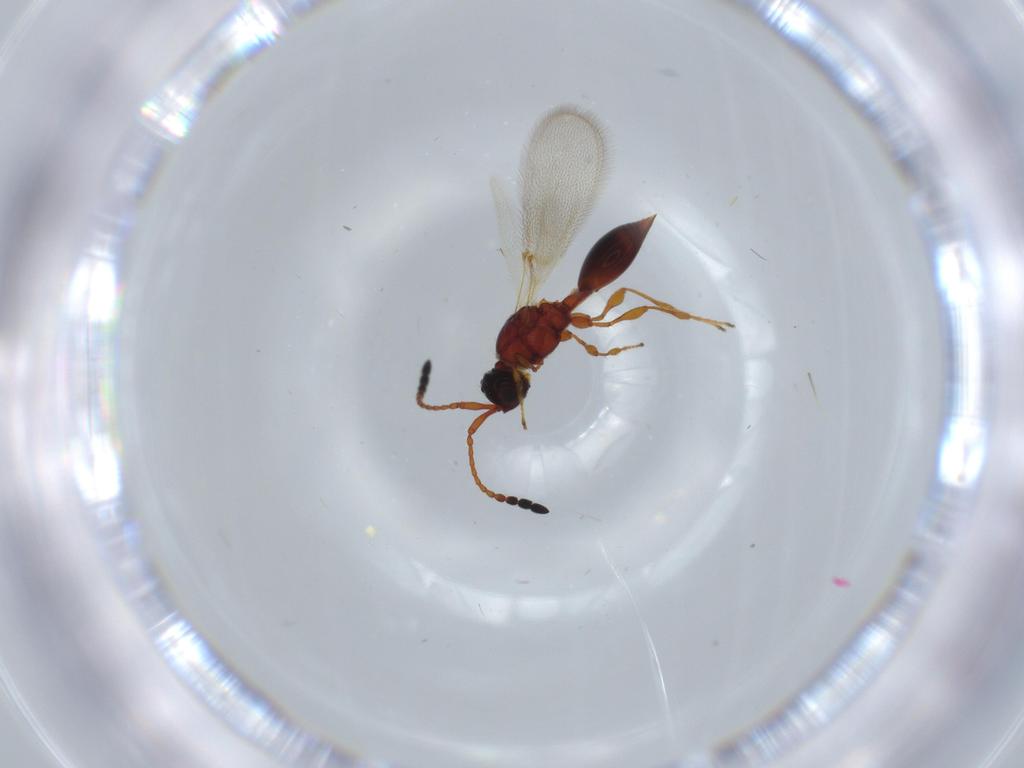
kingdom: Animalia
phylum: Arthropoda
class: Insecta
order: Hymenoptera
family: Diapriidae
